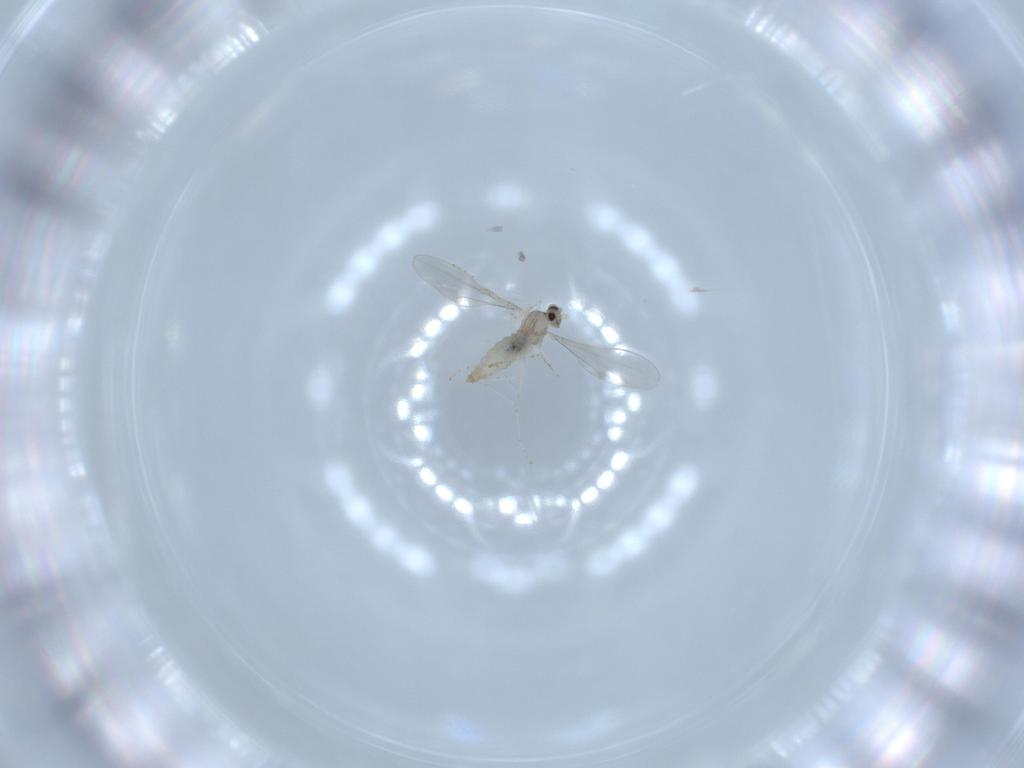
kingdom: Animalia
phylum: Arthropoda
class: Insecta
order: Diptera
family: Cecidomyiidae
